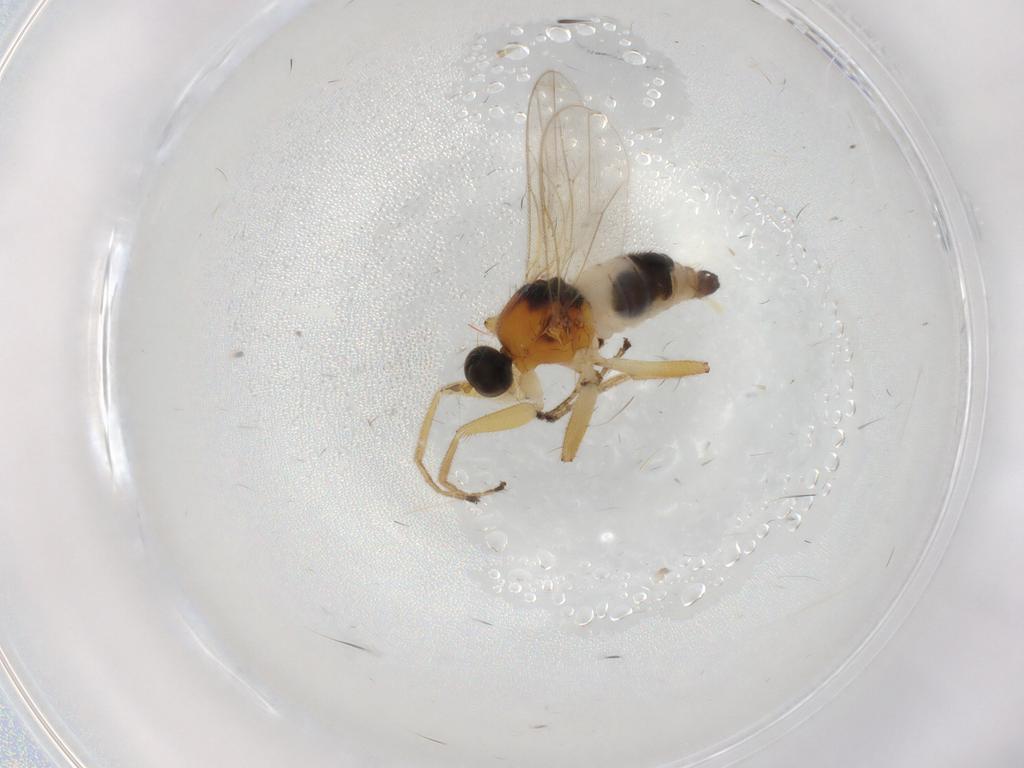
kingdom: Animalia
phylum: Arthropoda
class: Insecta
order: Diptera
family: Hybotidae
